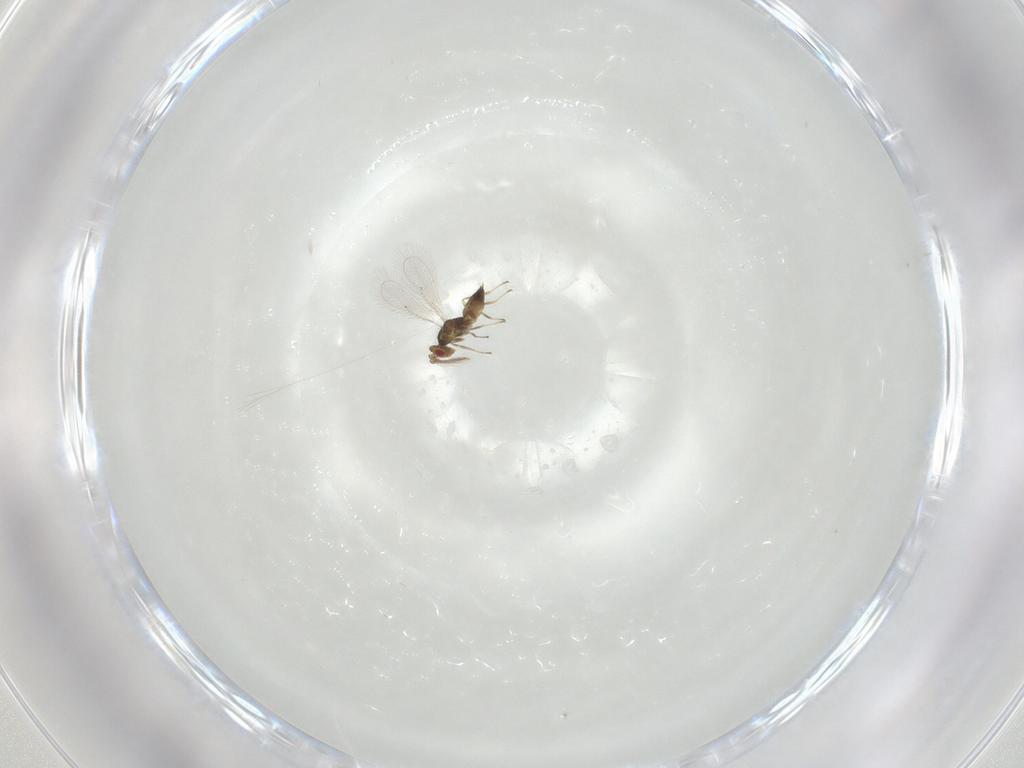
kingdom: Animalia
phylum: Arthropoda
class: Insecta
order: Hymenoptera
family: Eulophidae
